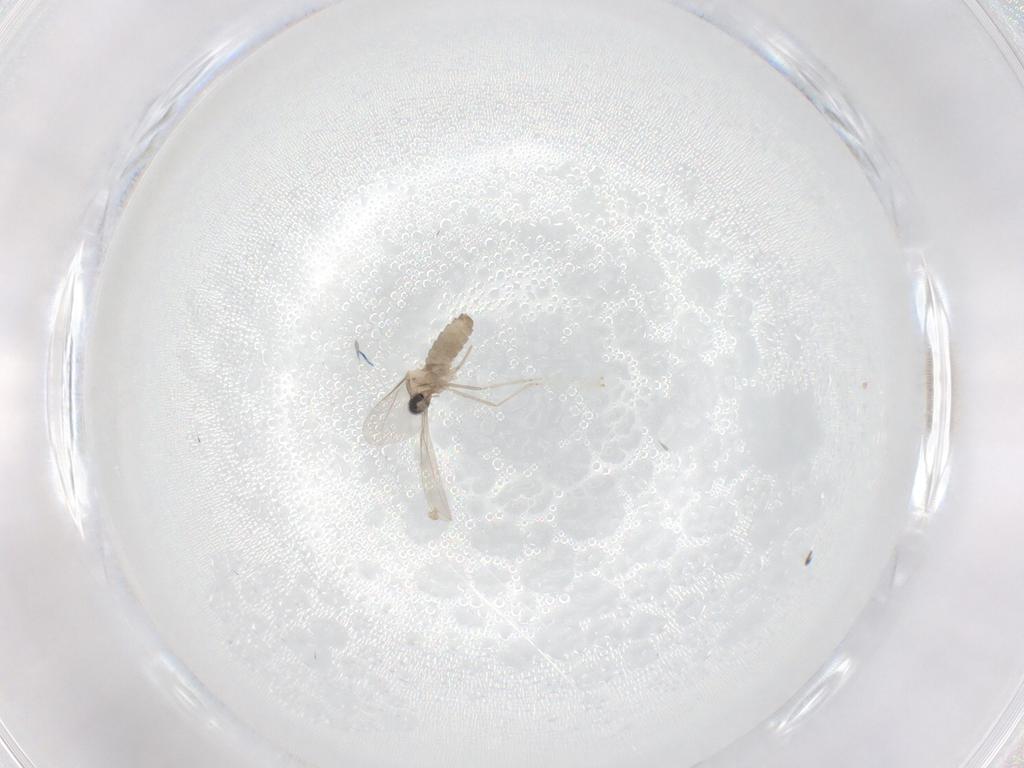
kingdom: Animalia
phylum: Arthropoda
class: Insecta
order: Diptera
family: Cecidomyiidae
